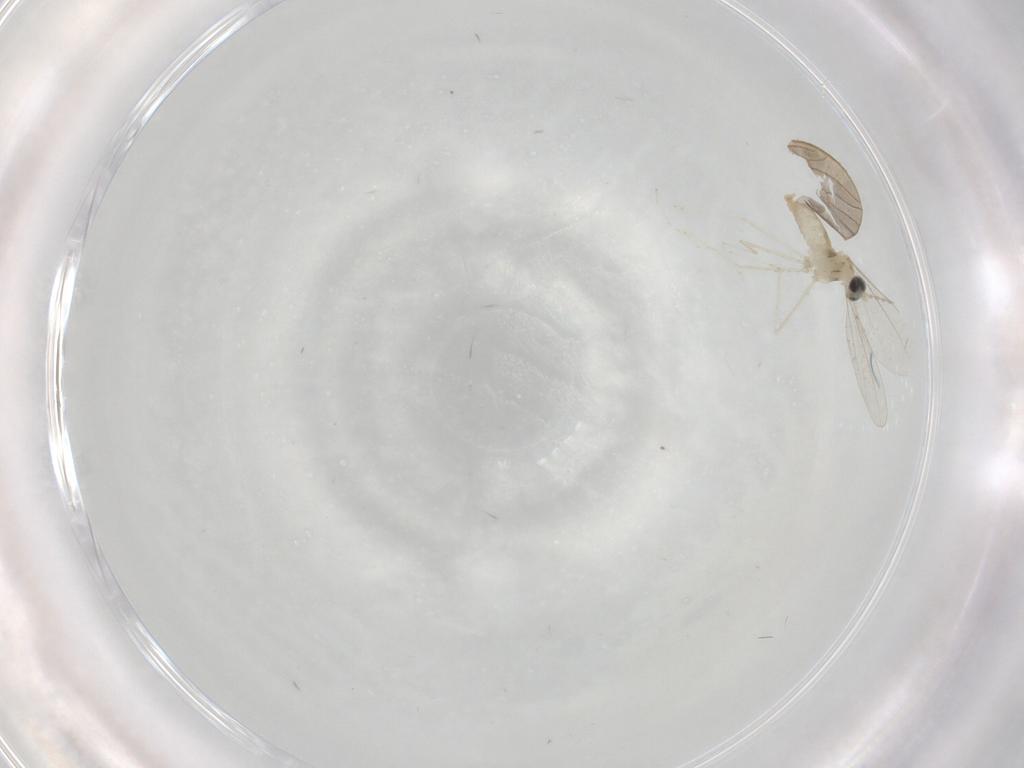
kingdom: Animalia
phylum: Arthropoda
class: Insecta
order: Diptera
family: Cecidomyiidae
